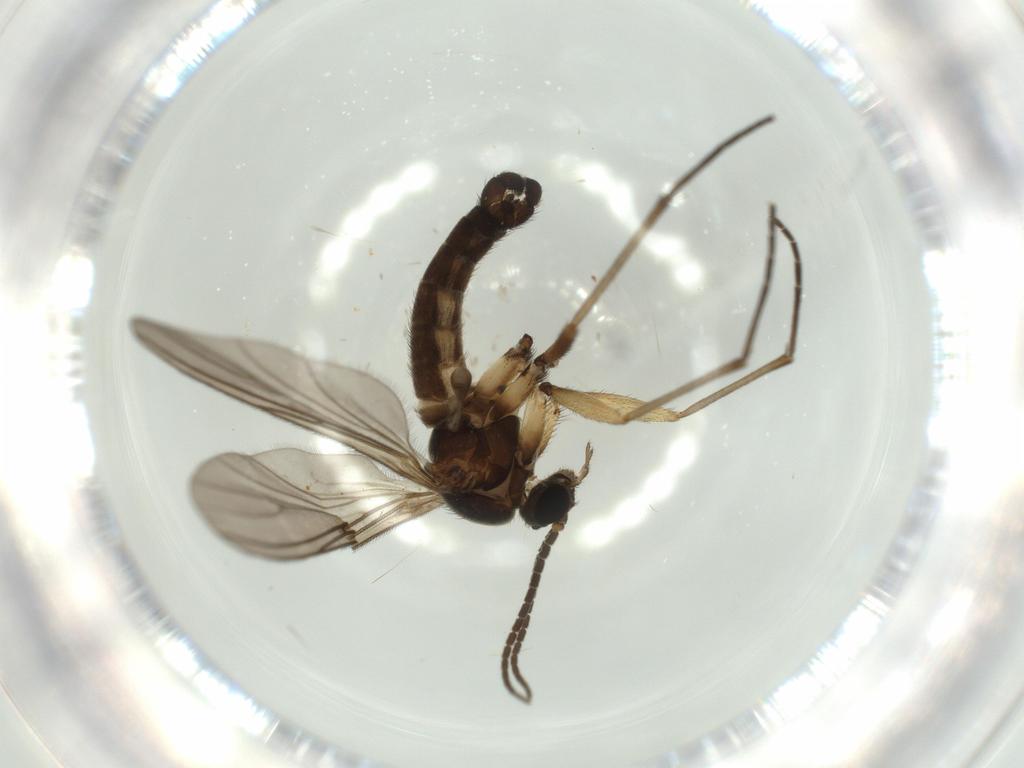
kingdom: Animalia
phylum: Arthropoda
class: Insecta
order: Diptera
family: Sciaridae
